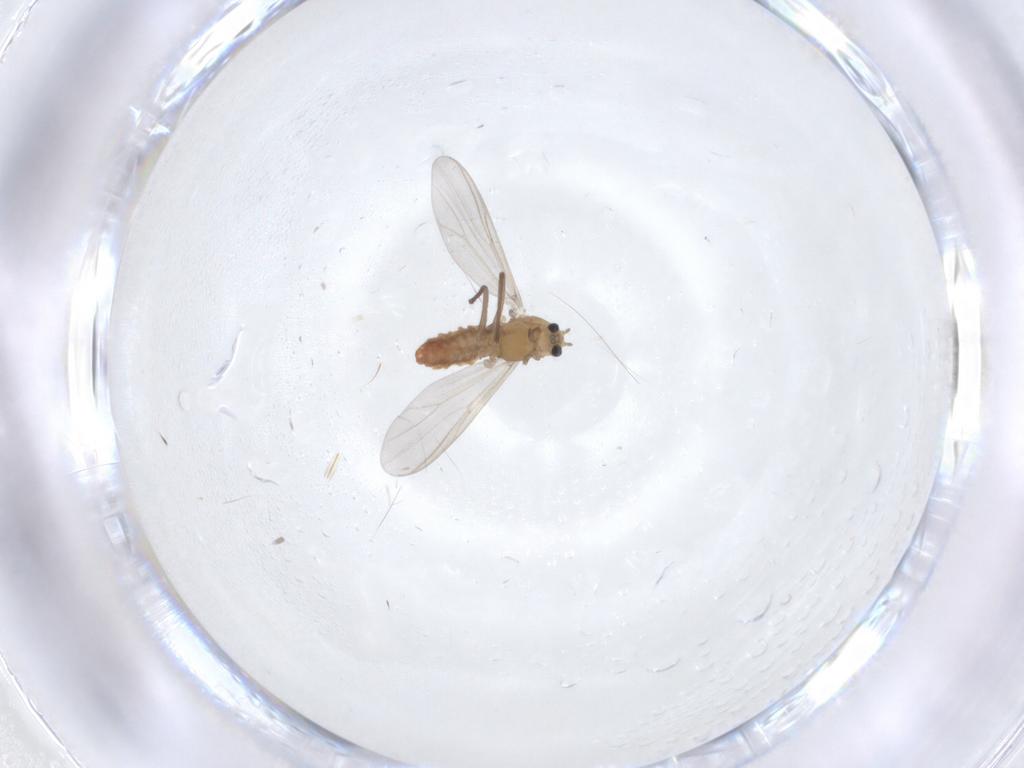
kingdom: Animalia
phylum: Arthropoda
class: Insecta
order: Diptera
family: Chironomidae
